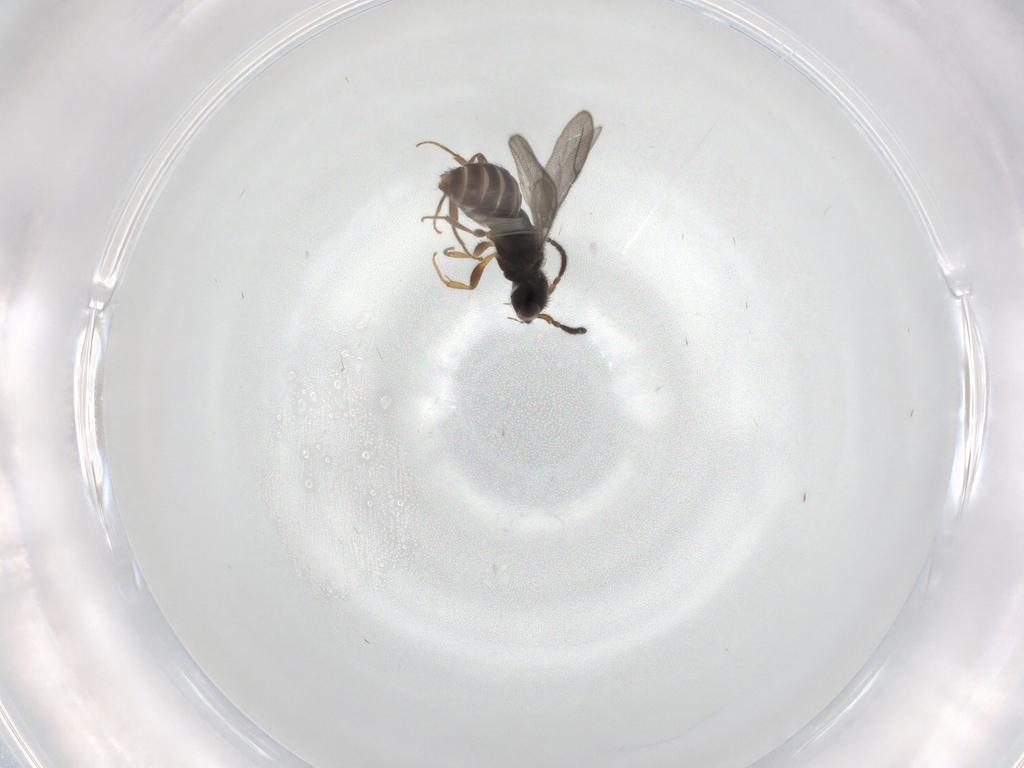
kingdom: Animalia
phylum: Arthropoda
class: Insecta
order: Hymenoptera
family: Bethylidae
